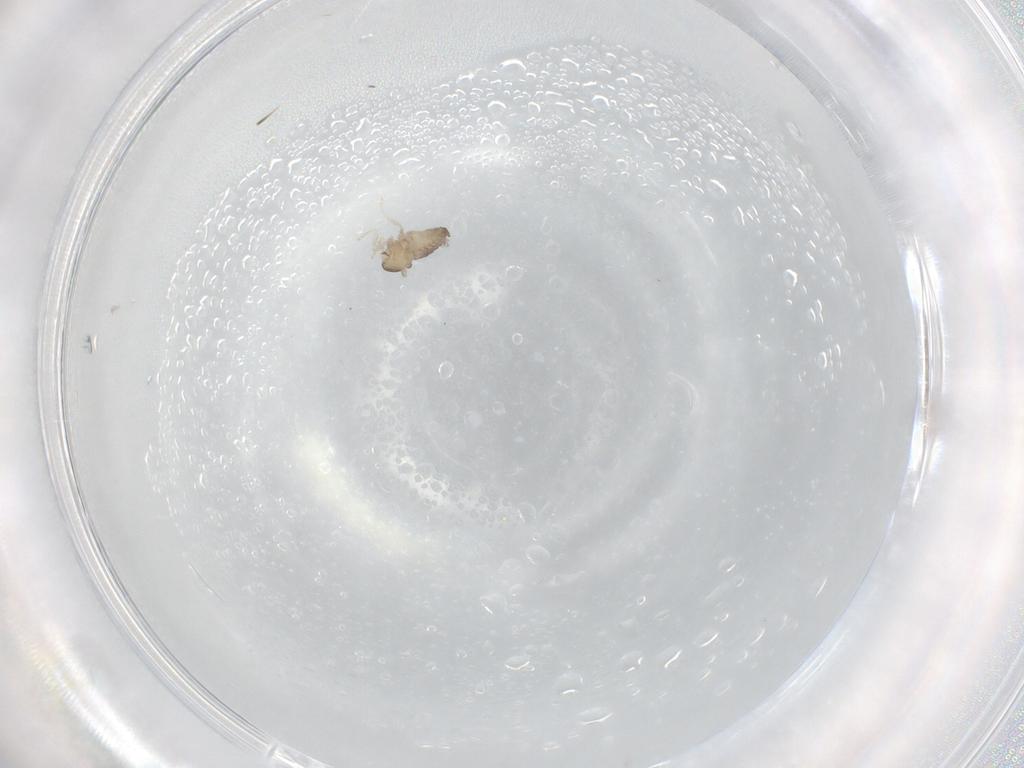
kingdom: Animalia
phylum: Arthropoda
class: Insecta
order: Diptera
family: Cecidomyiidae
